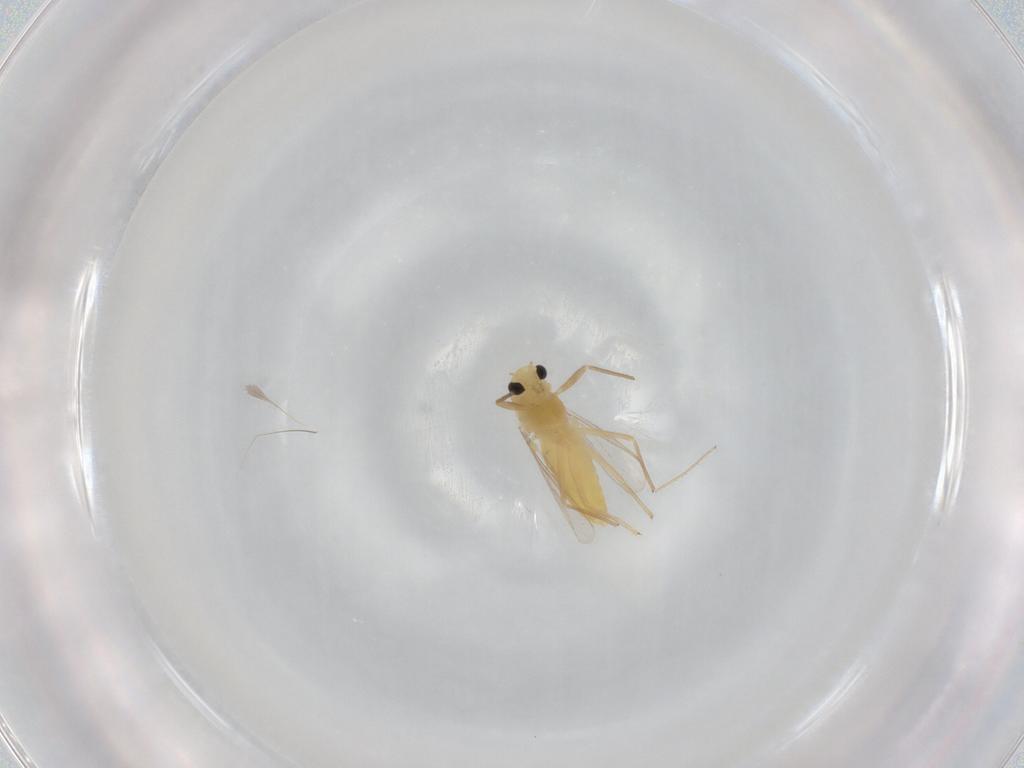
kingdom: Animalia
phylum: Arthropoda
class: Insecta
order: Diptera
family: Chironomidae
